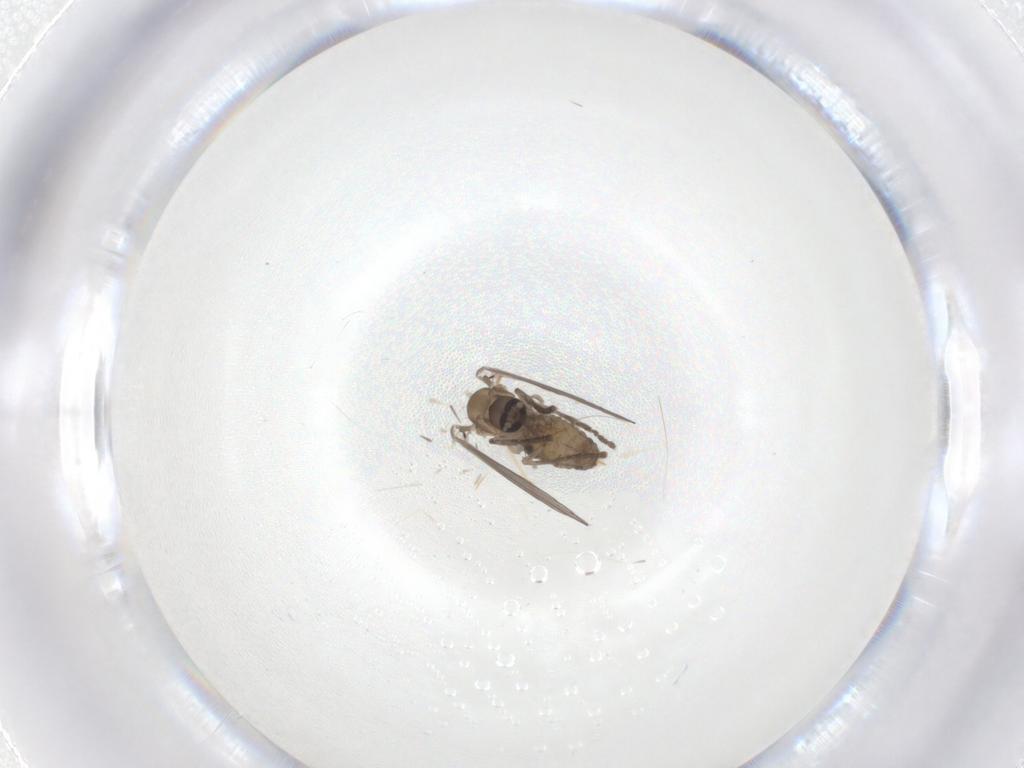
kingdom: Animalia
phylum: Arthropoda
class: Insecta
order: Diptera
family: Psychodidae
